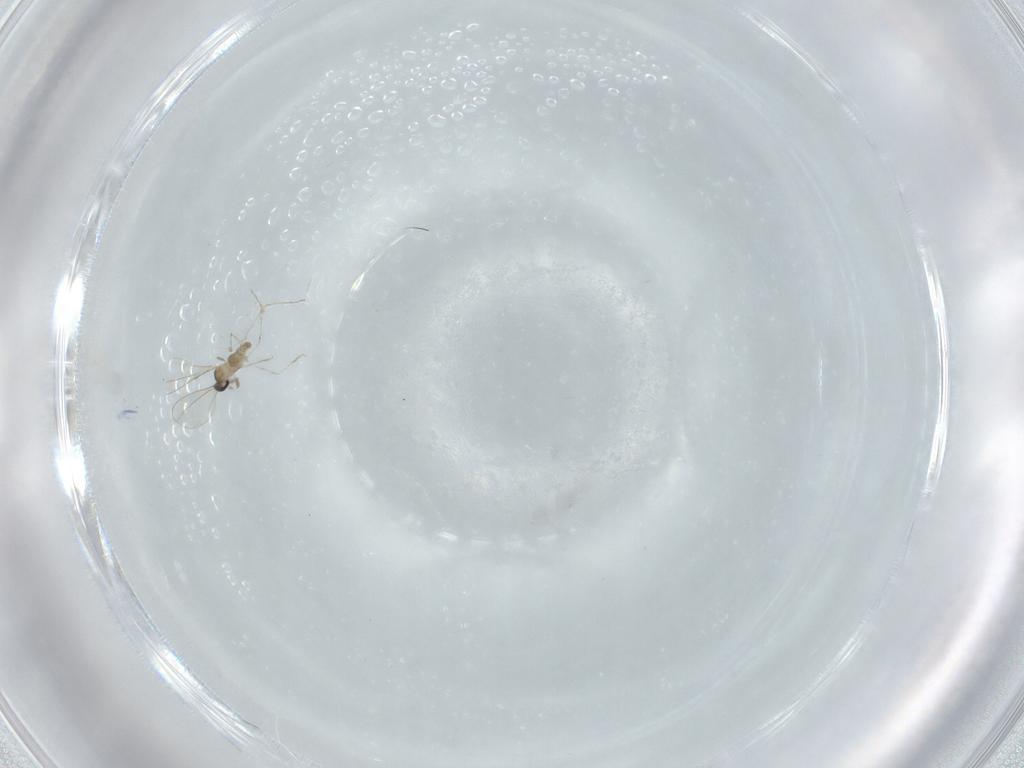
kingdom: Animalia
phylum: Arthropoda
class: Insecta
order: Diptera
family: Cecidomyiidae
